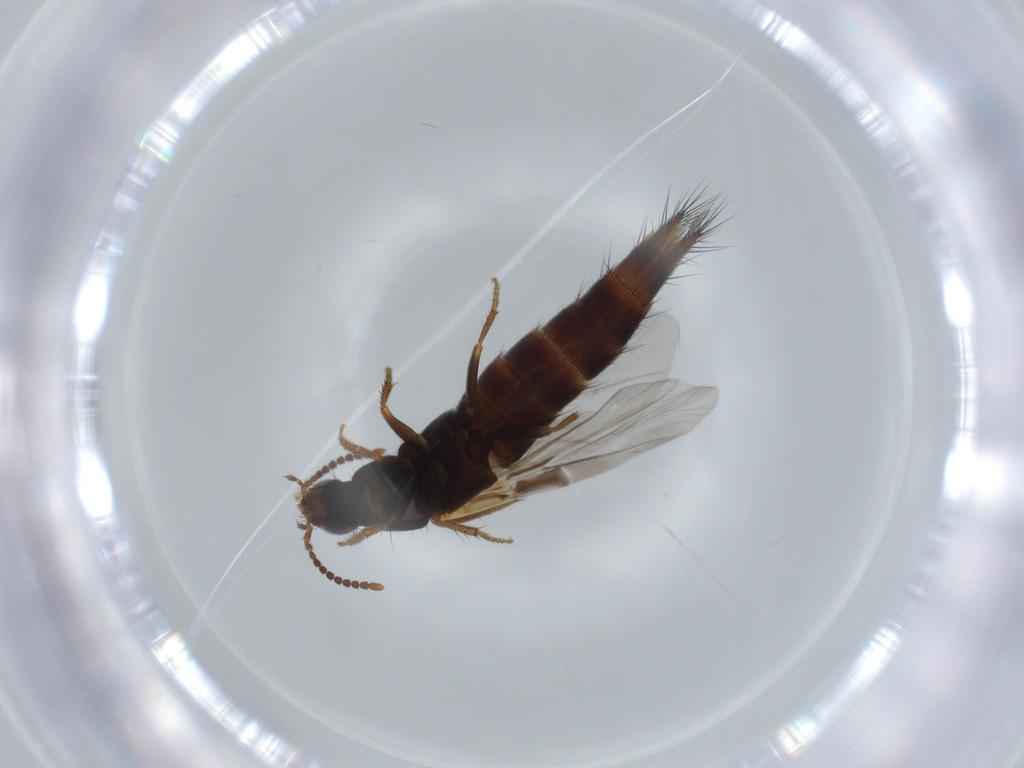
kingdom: Animalia
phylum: Arthropoda
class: Insecta
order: Coleoptera
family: Staphylinidae
